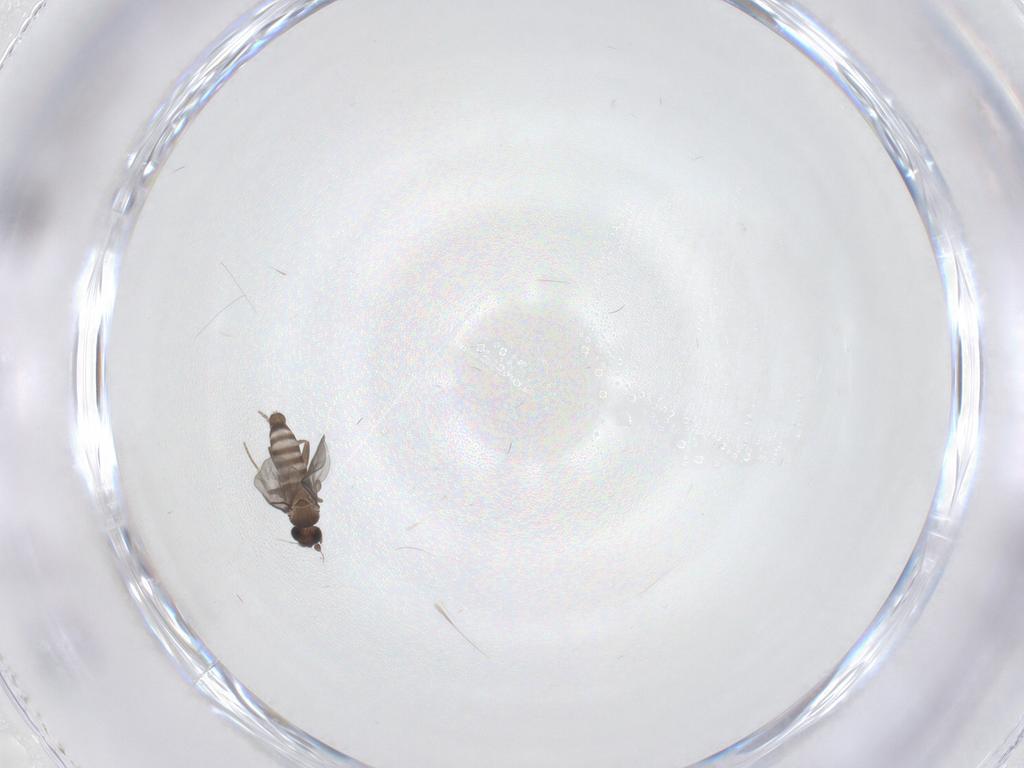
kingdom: Animalia
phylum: Arthropoda
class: Insecta
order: Diptera
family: Limoniidae
